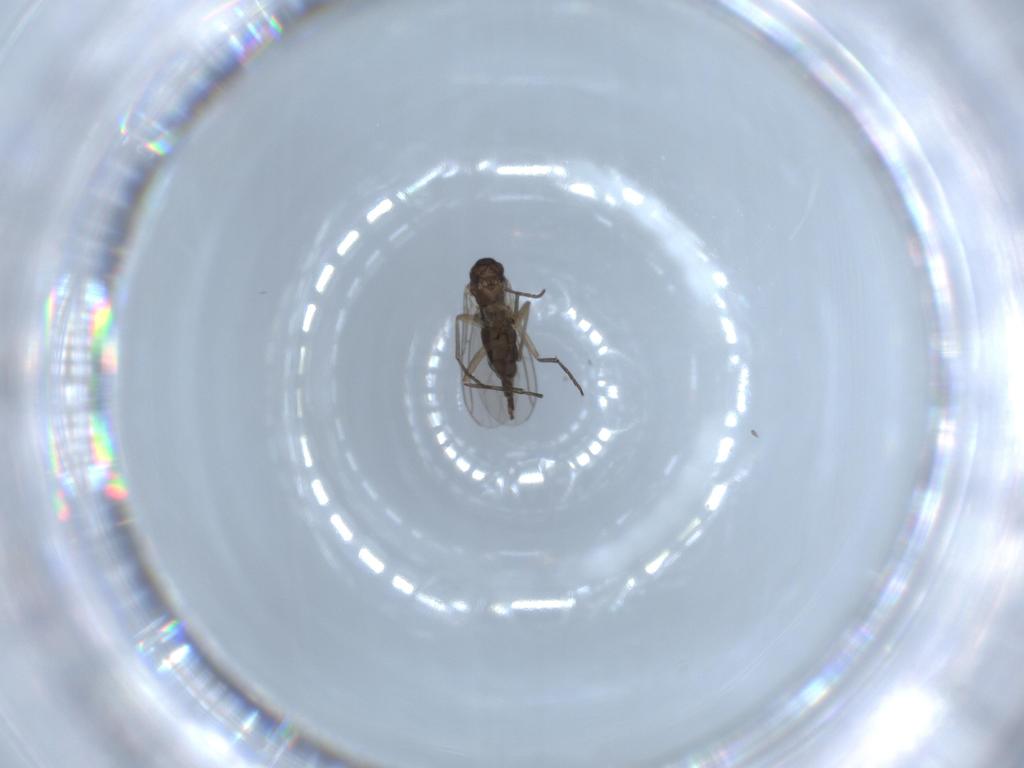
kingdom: Animalia
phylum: Arthropoda
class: Insecta
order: Diptera
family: Sciaridae
